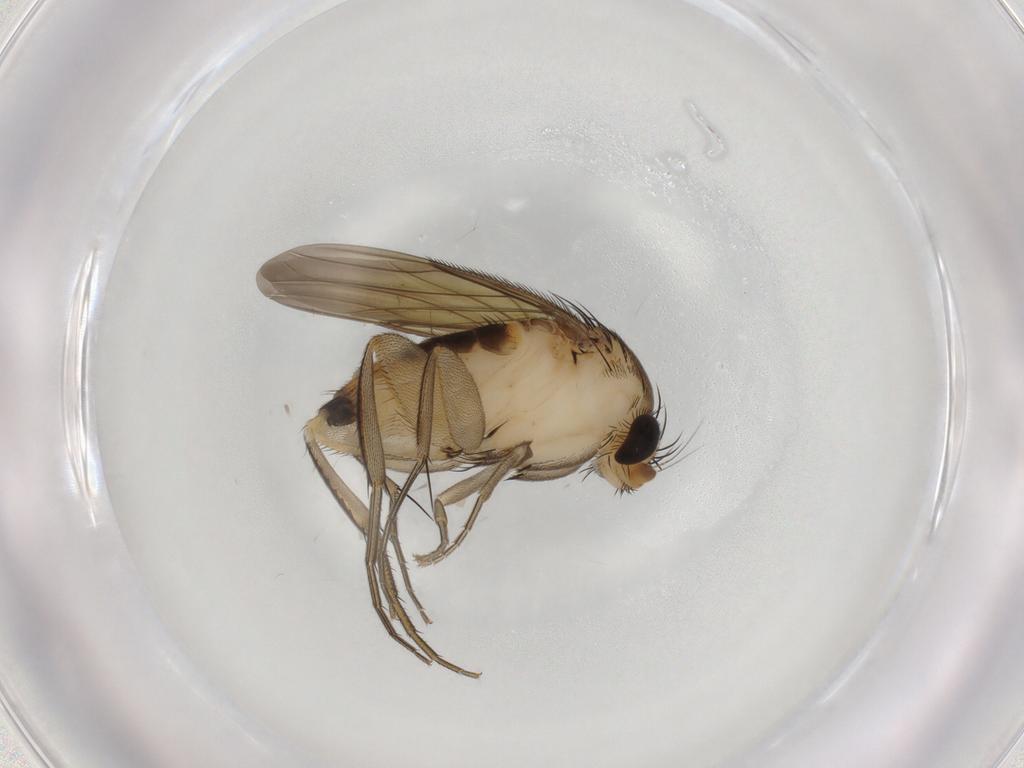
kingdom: Animalia
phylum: Arthropoda
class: Insecta
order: Diptera
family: Phoridae
